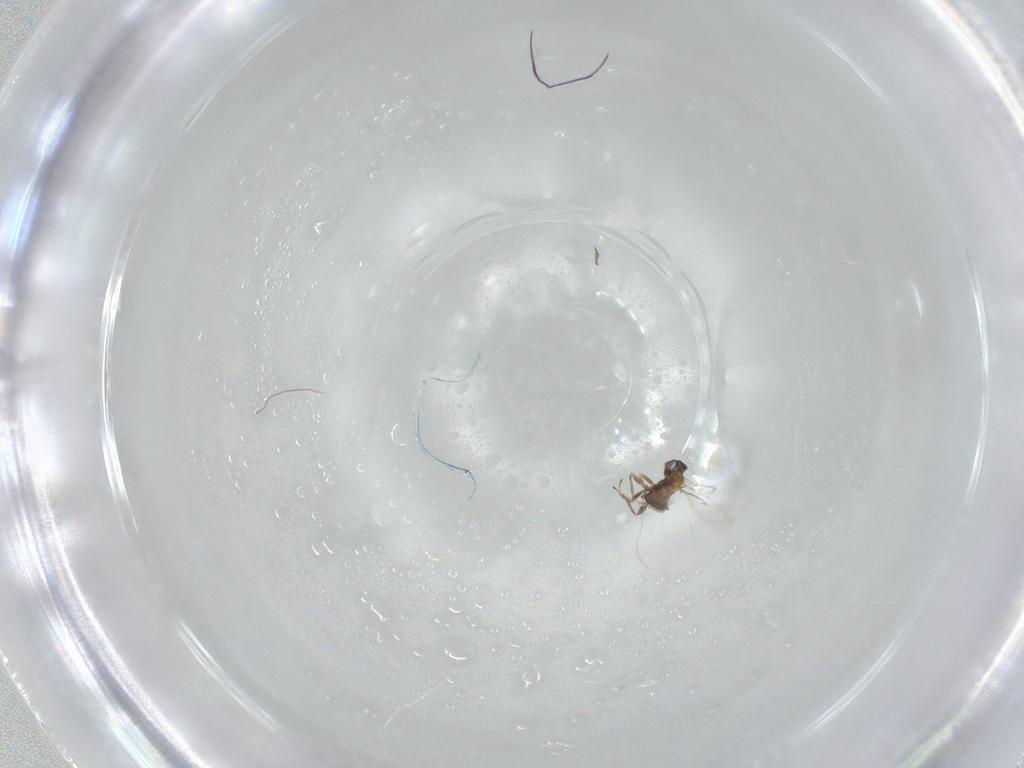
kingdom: Animalia
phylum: Arthropoda
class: Insecta
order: Hymenoptera
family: Trichogrammatidae
